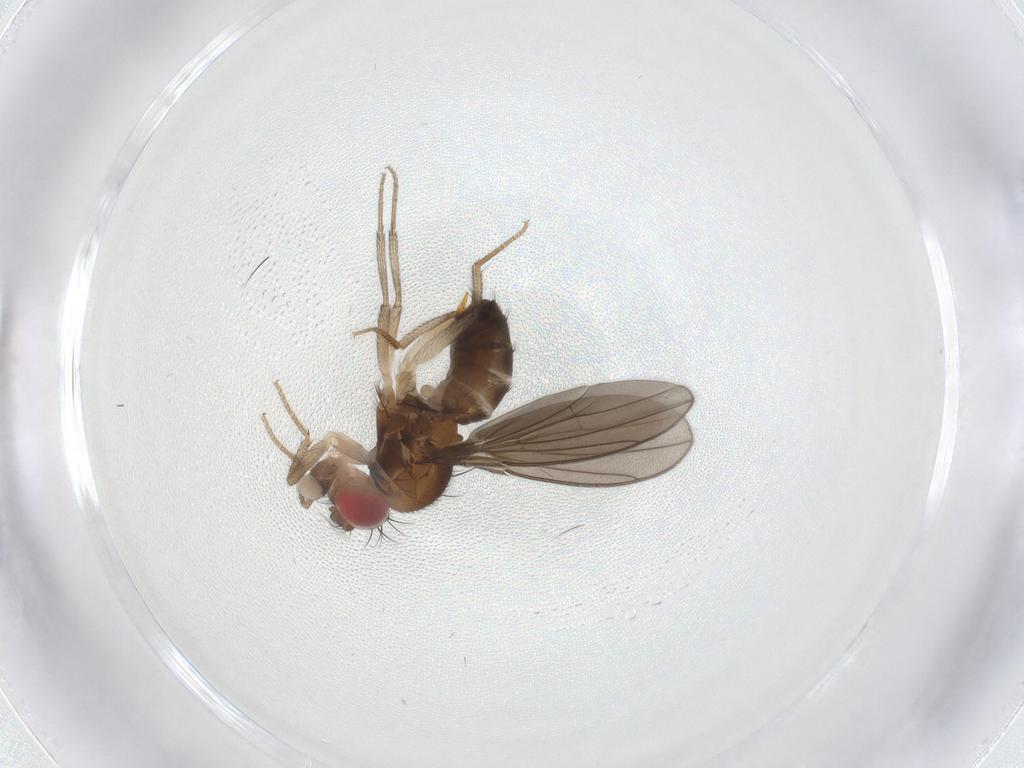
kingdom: Animalia
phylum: Arthropoda
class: Insecta
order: Diptera
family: Drosophilidae
